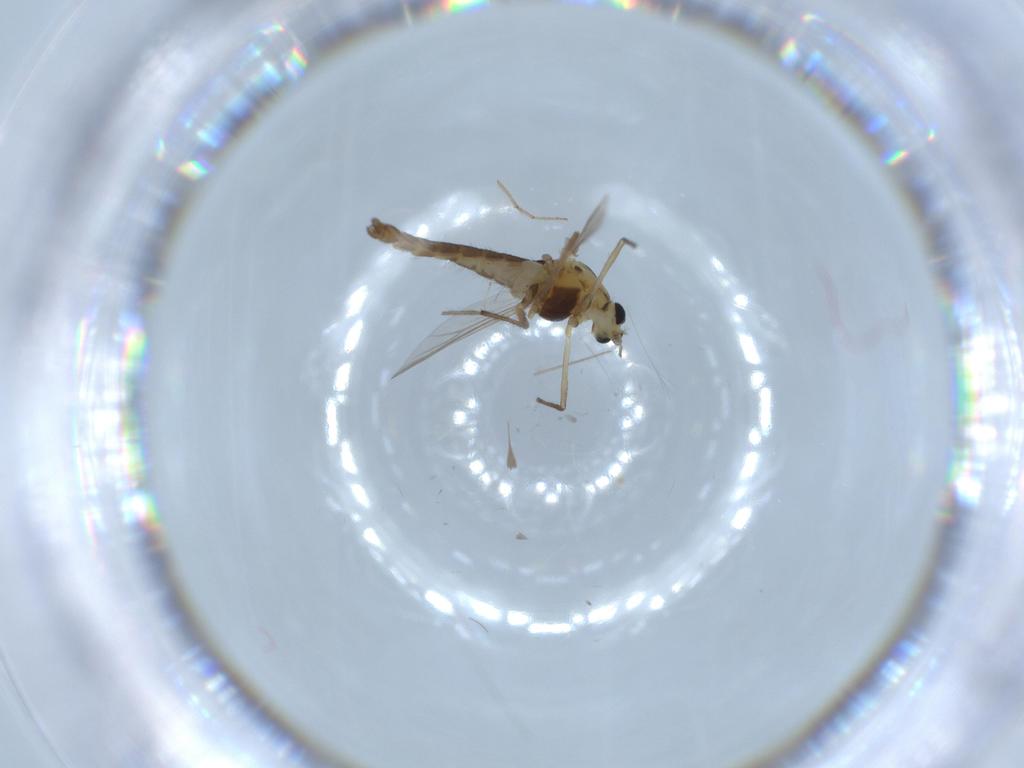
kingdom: Animalia
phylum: Arthropoda
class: Insecta
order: Diptera
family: Chironomidae
